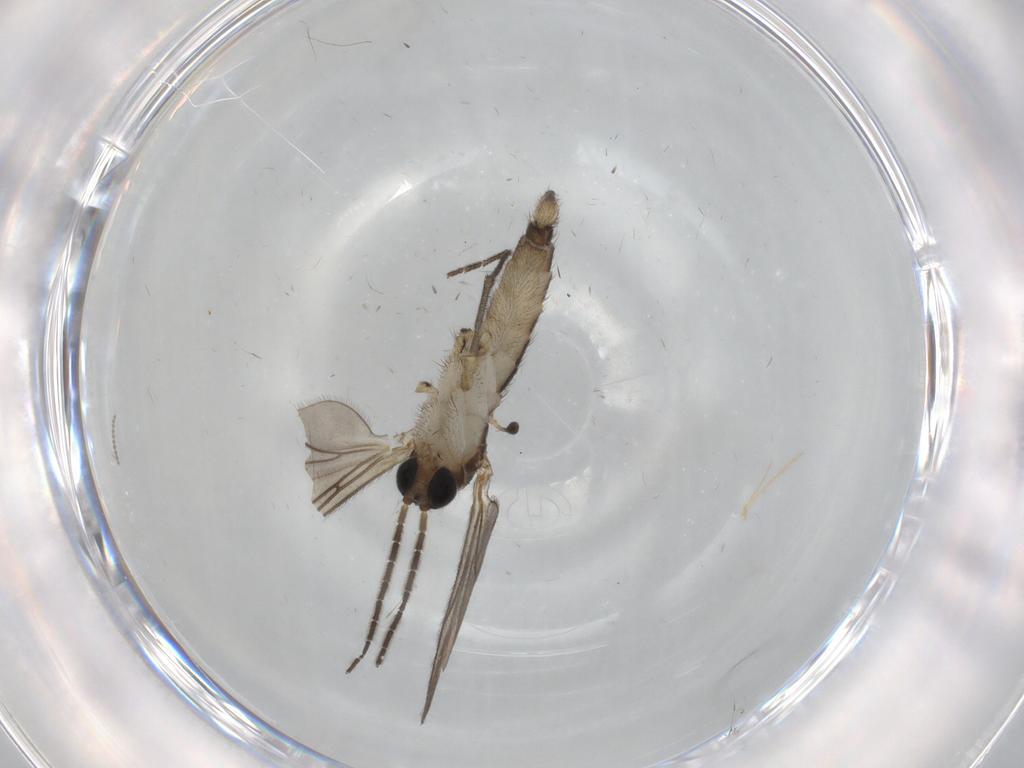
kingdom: Animalia
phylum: Arthropoda
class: Insecta
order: Diptera
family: Sciaridae
